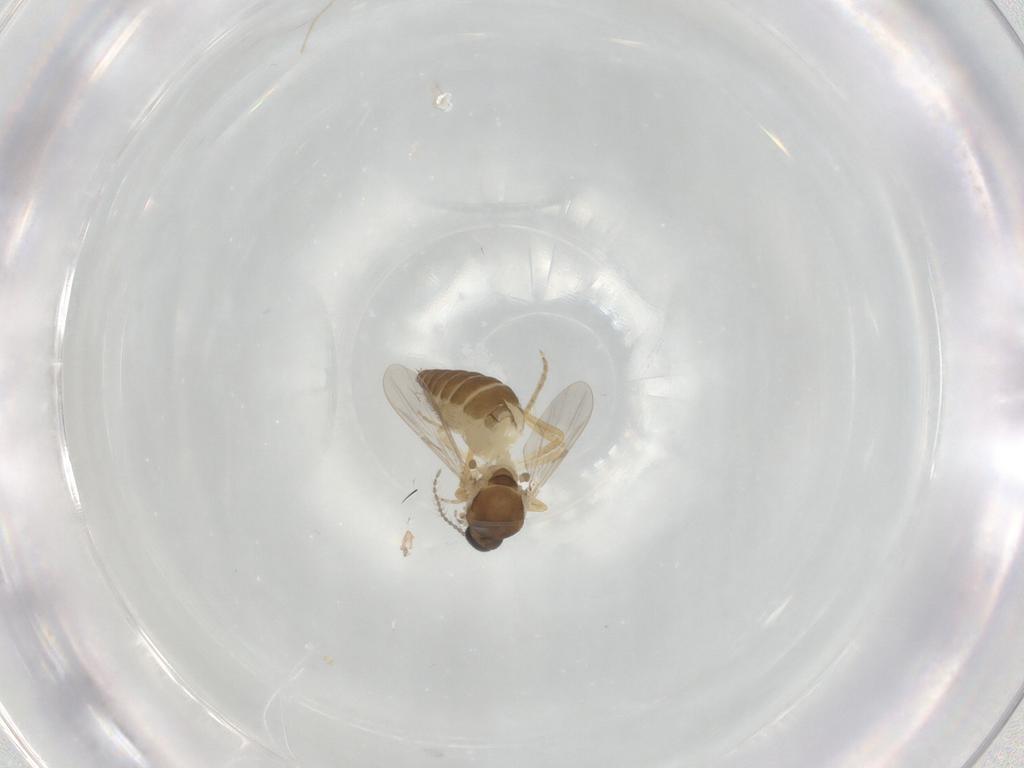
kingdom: Animalia
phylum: Arthropoda
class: Insecta
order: Diptera
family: Ceratopogonidae
